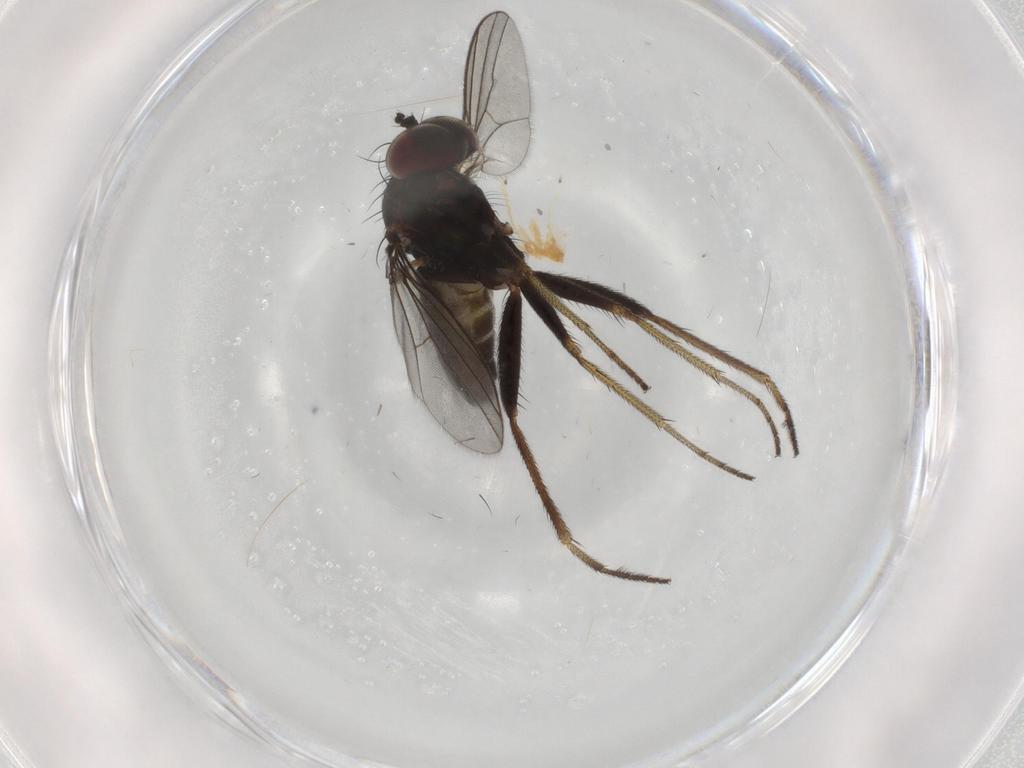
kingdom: Animalia
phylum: Arthropoda
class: Insecta
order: Diptera
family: Dolichopodidae
